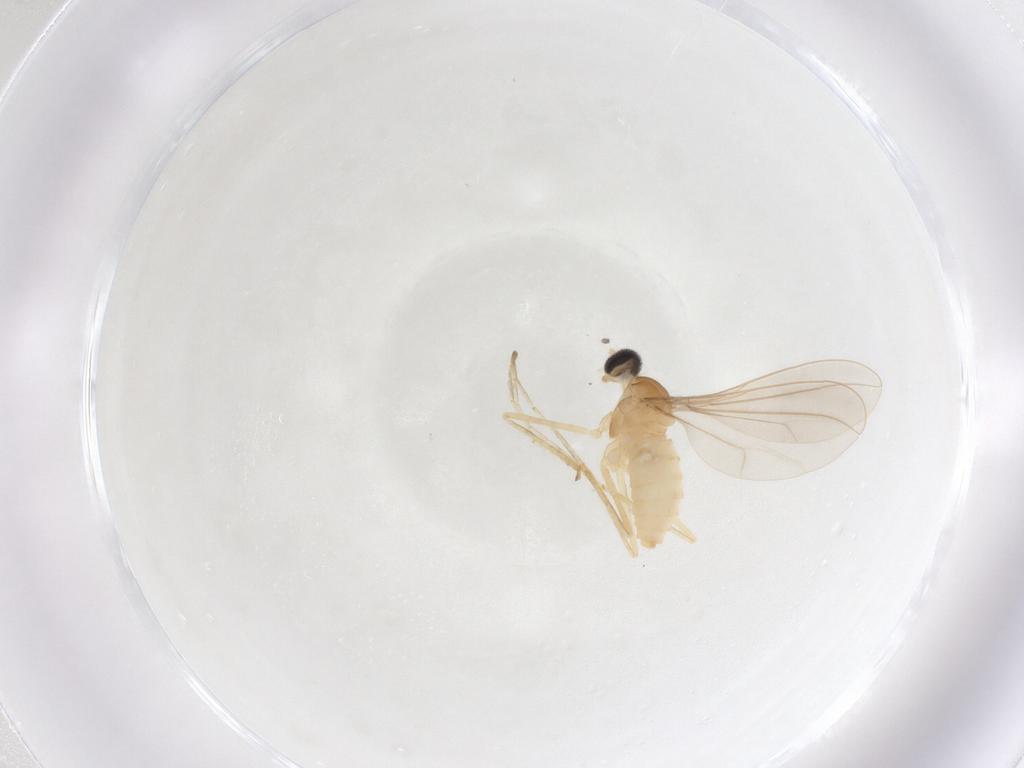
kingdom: Animalia
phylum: Arthropoda
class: Insecta
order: Diptera
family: Cecidomyiidae
